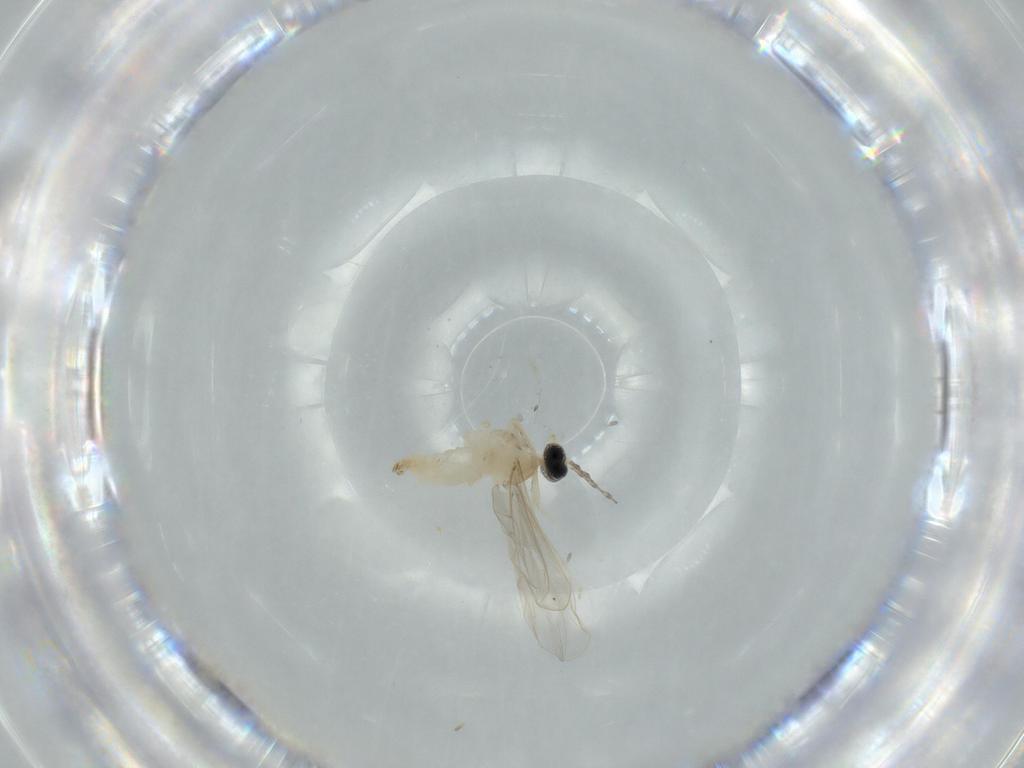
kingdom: Animalia
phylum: Arthropoda
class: Insecta
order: Diptera
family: Cecidomyiidae
